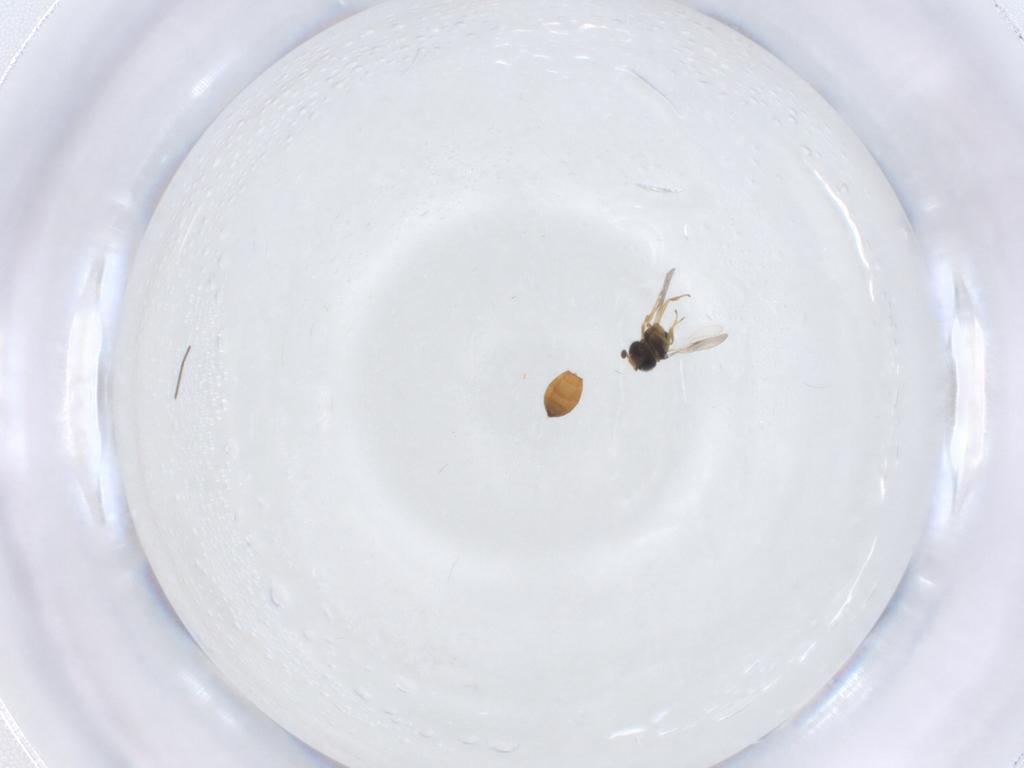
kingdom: Animalia
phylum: Arthropoda
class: Insecta
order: Hymenoptera
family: Scelionidae
